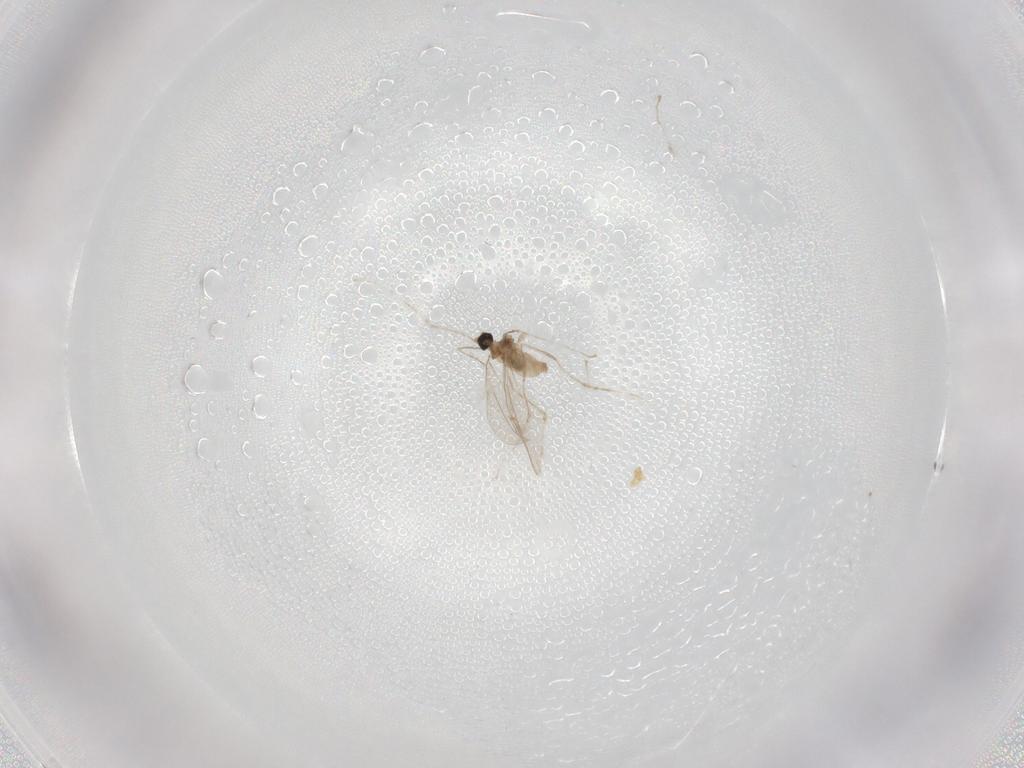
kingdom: Animalia
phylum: Arthropoda
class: Insecta
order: Diptera
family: Cecidomyiidae
